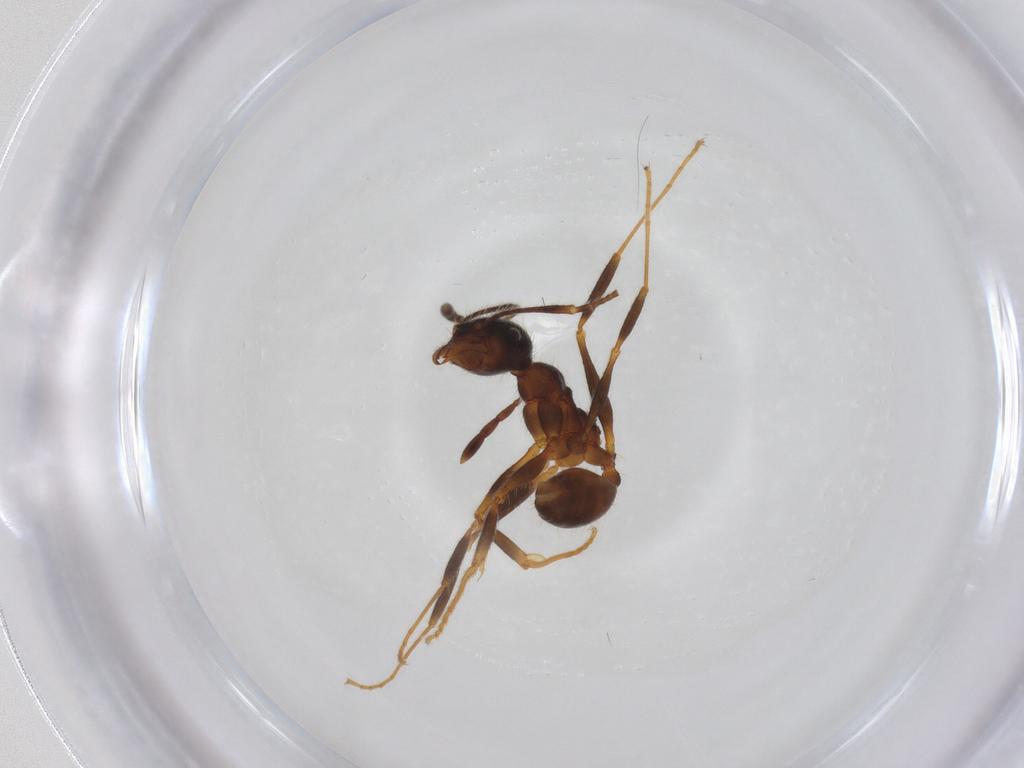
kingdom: Animalia
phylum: Arthropoda
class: Insecta
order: Hymenoptera
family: Formicidae
